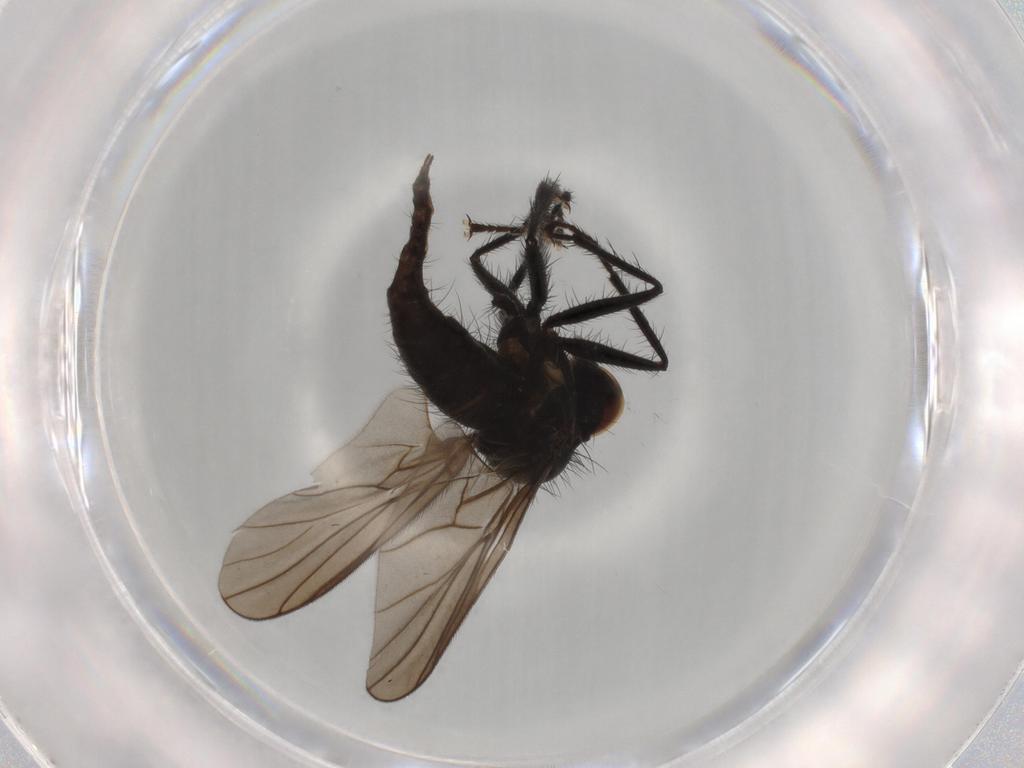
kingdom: Animalia
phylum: Arthropoda
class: Insecta
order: Diptera
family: Hybotidae
